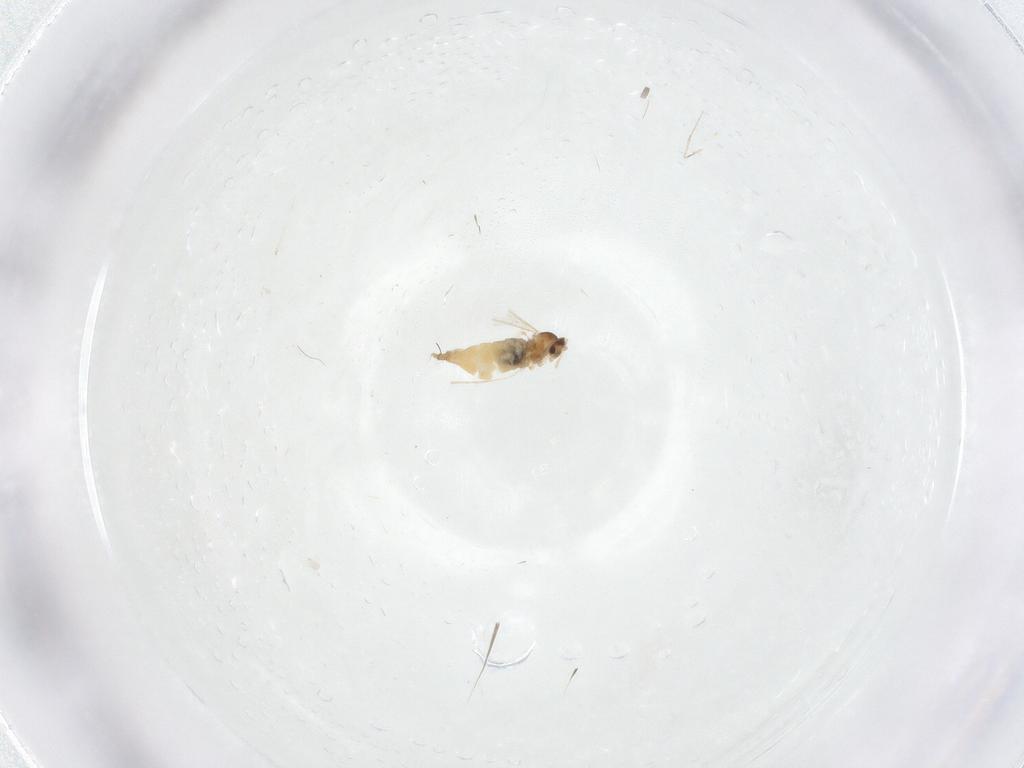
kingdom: Animalia
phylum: Arthropoda
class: Insecta
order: Diptera
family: Cecidomyiidae
